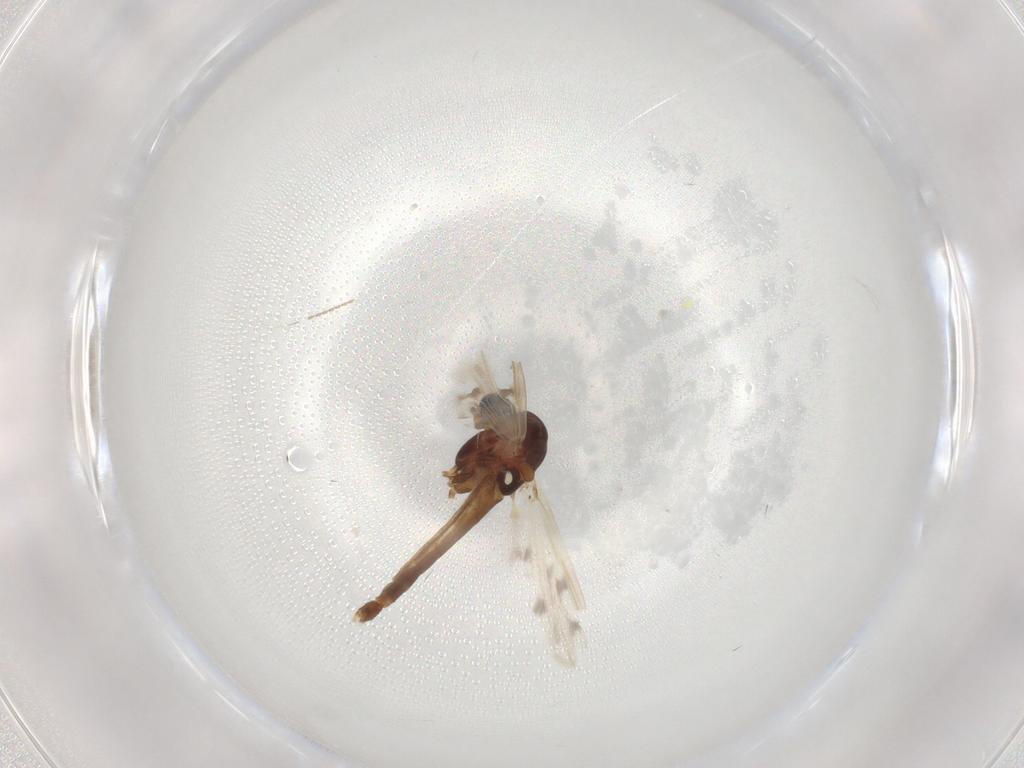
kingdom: Animalia
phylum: Arthropoda
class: Insecta
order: Diptera
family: Cecidomyiidae
